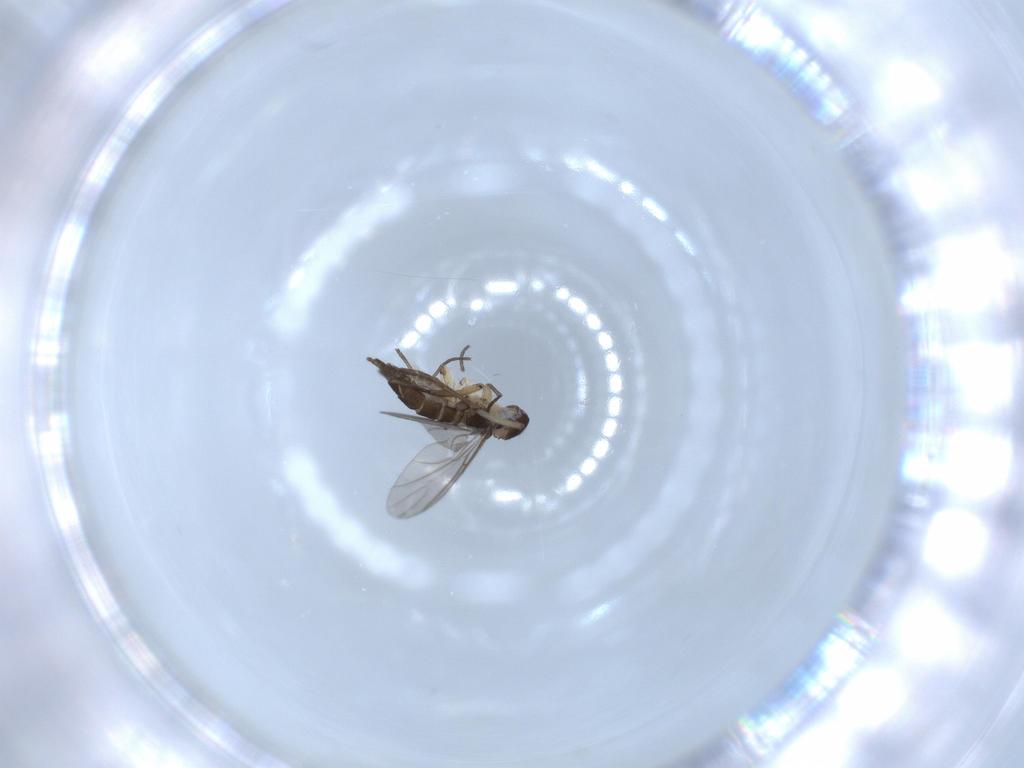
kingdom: Animalia
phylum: Arthropoda
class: Insecta
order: Diptera
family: Sciaridae
